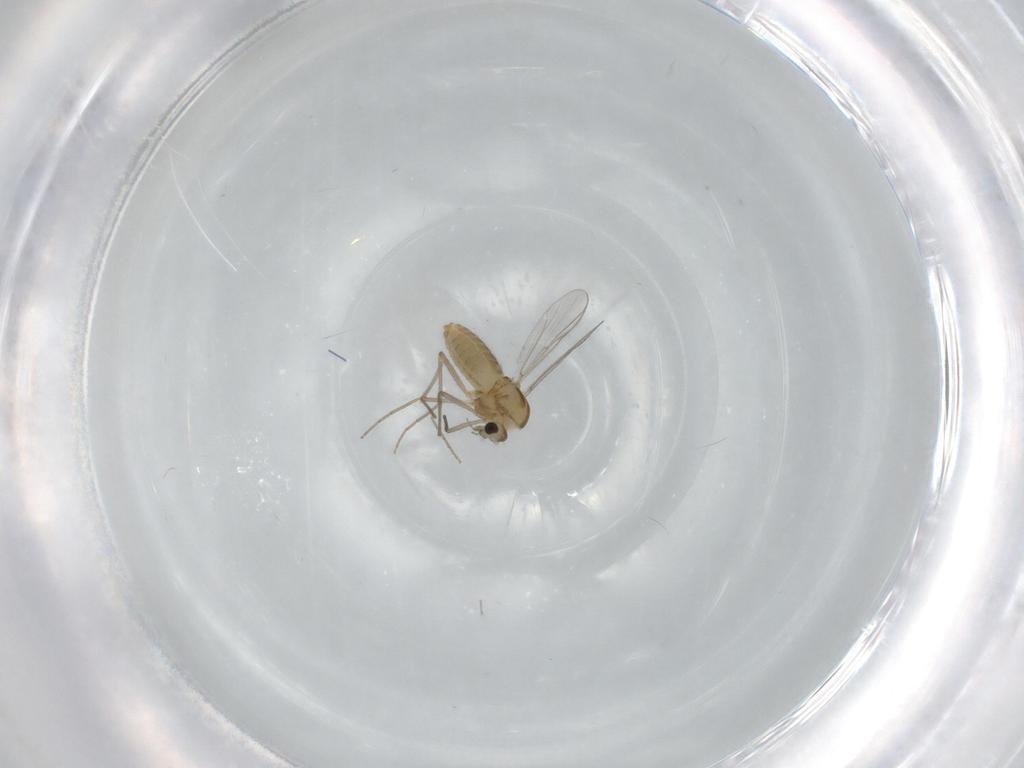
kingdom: Animalia
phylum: Arthropoda
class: Insecta
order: Diptera
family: Chironomidae
